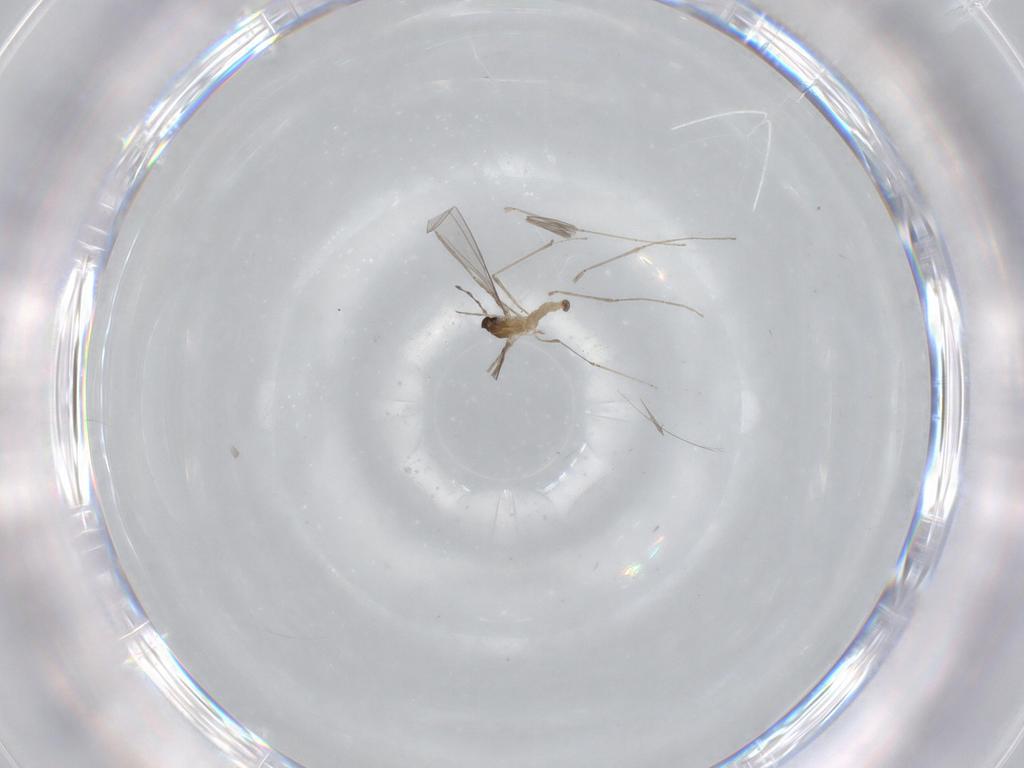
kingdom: Animalia
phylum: Arthropoda
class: Insecta
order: Diptera
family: Cecidomyiidae
